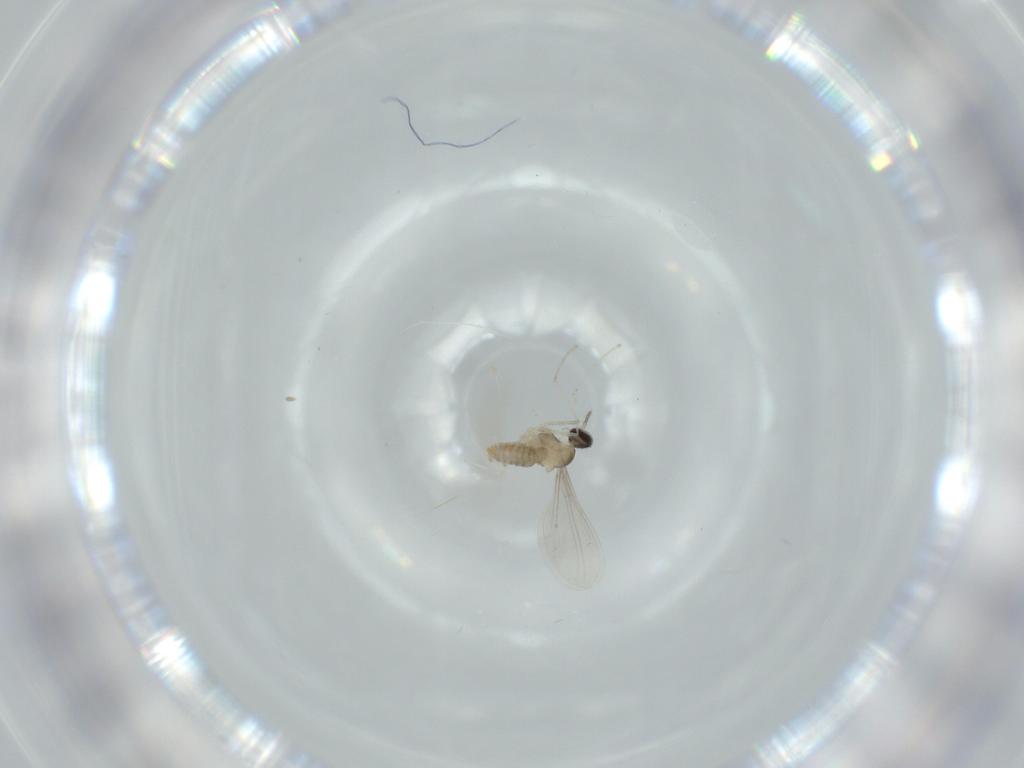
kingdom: Animalia
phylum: Arthropoda
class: Insecta
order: Diptera
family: Cecidomyiidae
